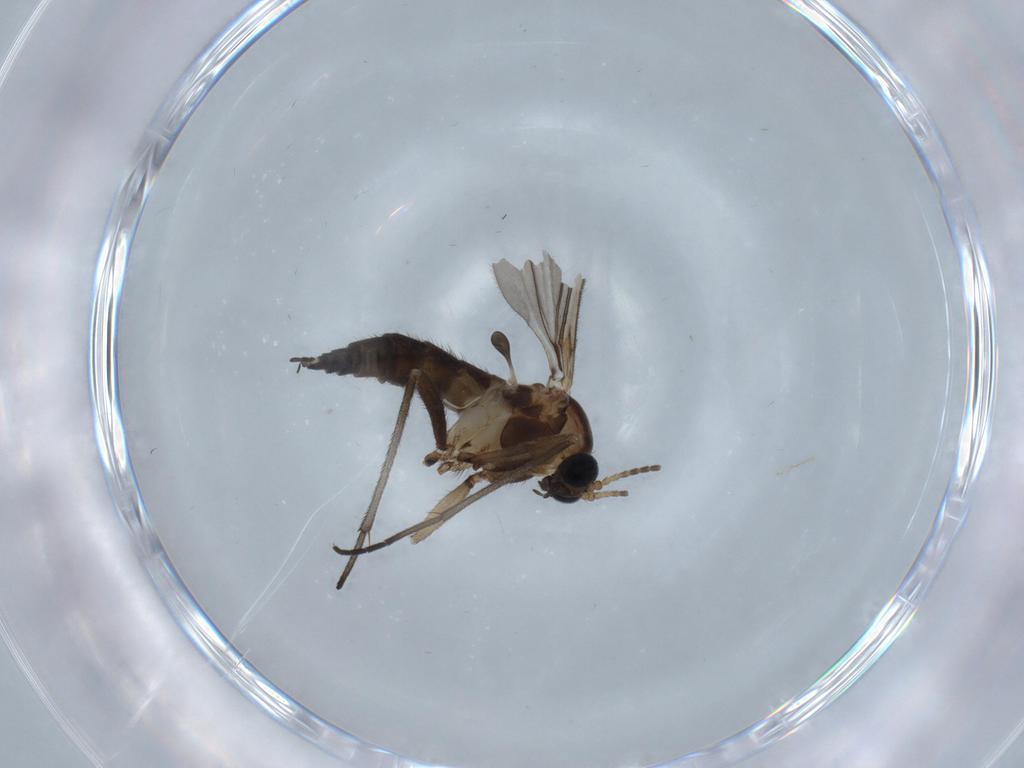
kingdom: Animalia
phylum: Arthropoda
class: Insecta
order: Diptera
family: Sciaridae
